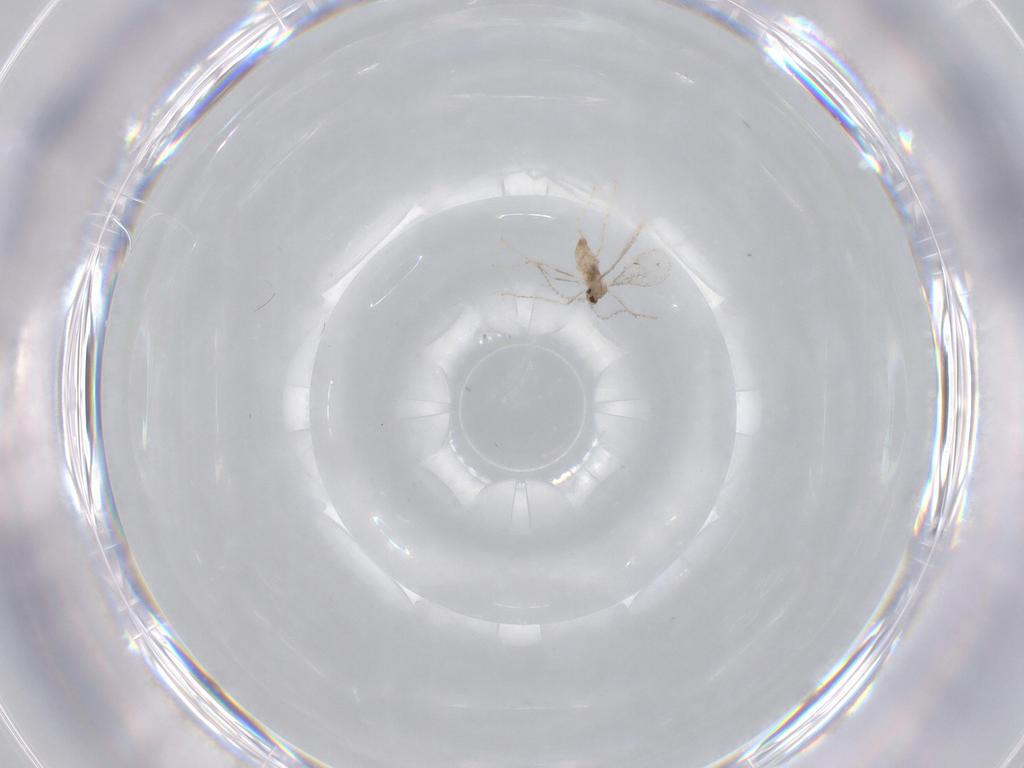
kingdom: Animalia
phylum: Arthropoda
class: Insecta
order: Diptera
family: Cecidomyiidae
